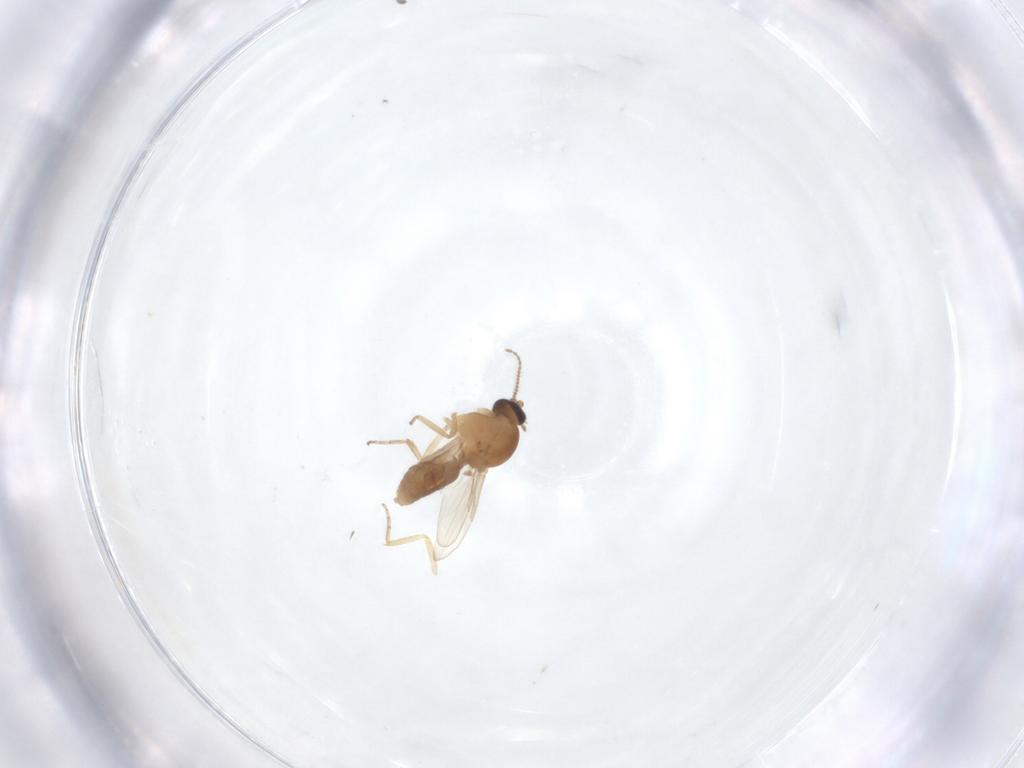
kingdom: Animalia
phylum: Arthropoda
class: Insecta
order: Diptera
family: Ceratopogonidae
